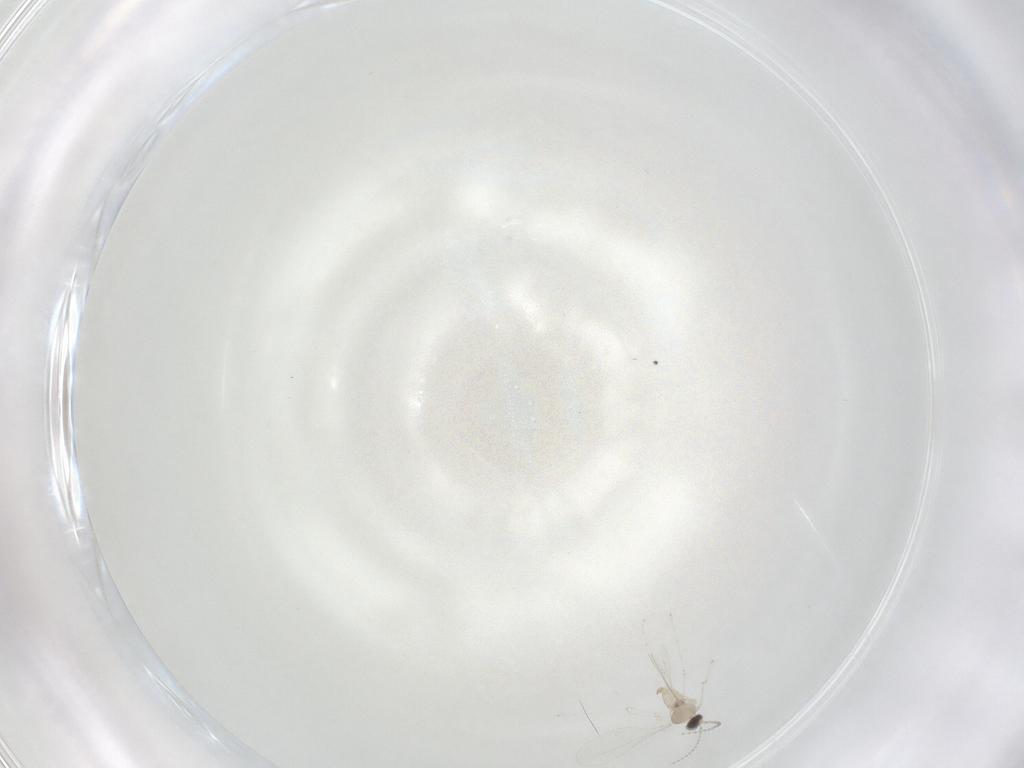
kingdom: Animalia
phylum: Arthropoda
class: Insecta
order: Diptera
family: Cecidomyiidae
